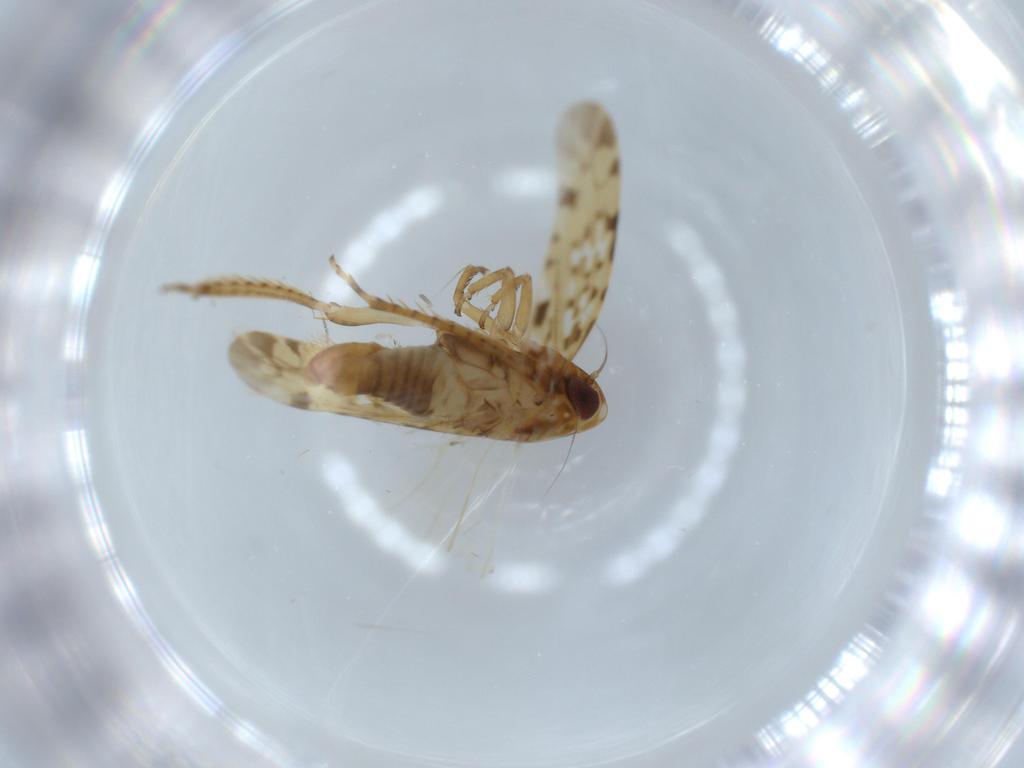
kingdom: Animalia
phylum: Arthropoda
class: Insecta
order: Hemiptera
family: Cicadellidae
